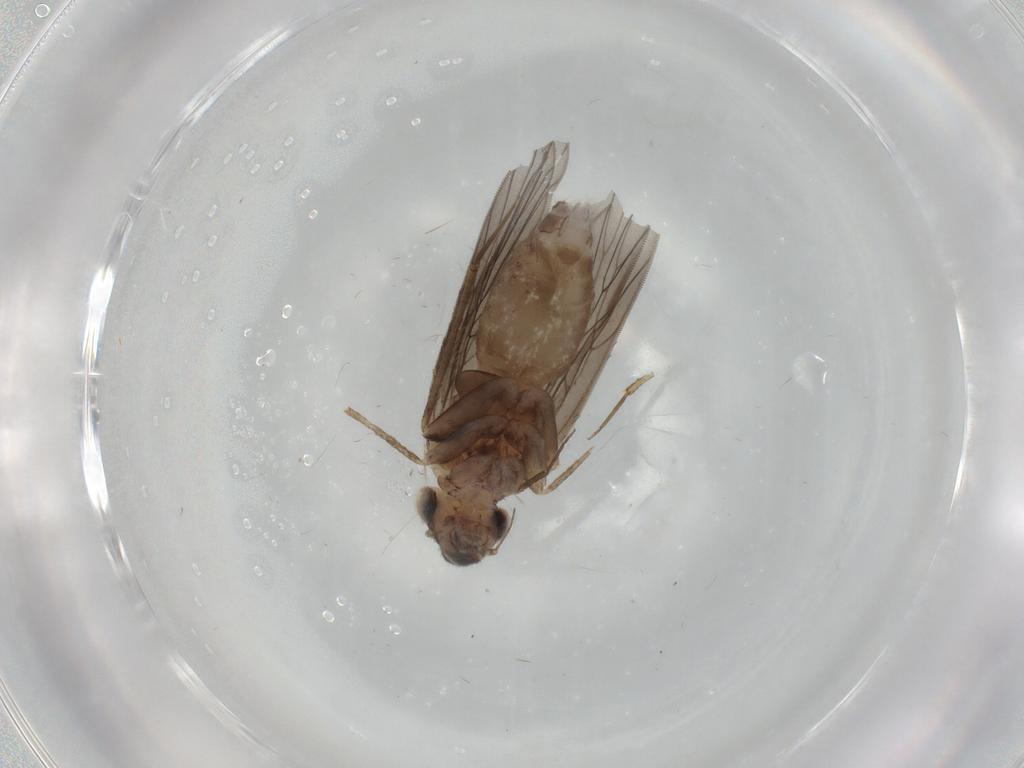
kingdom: Animalia
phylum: Arthropoda
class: Insecta
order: Psocodea
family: Lepidopsocidae
